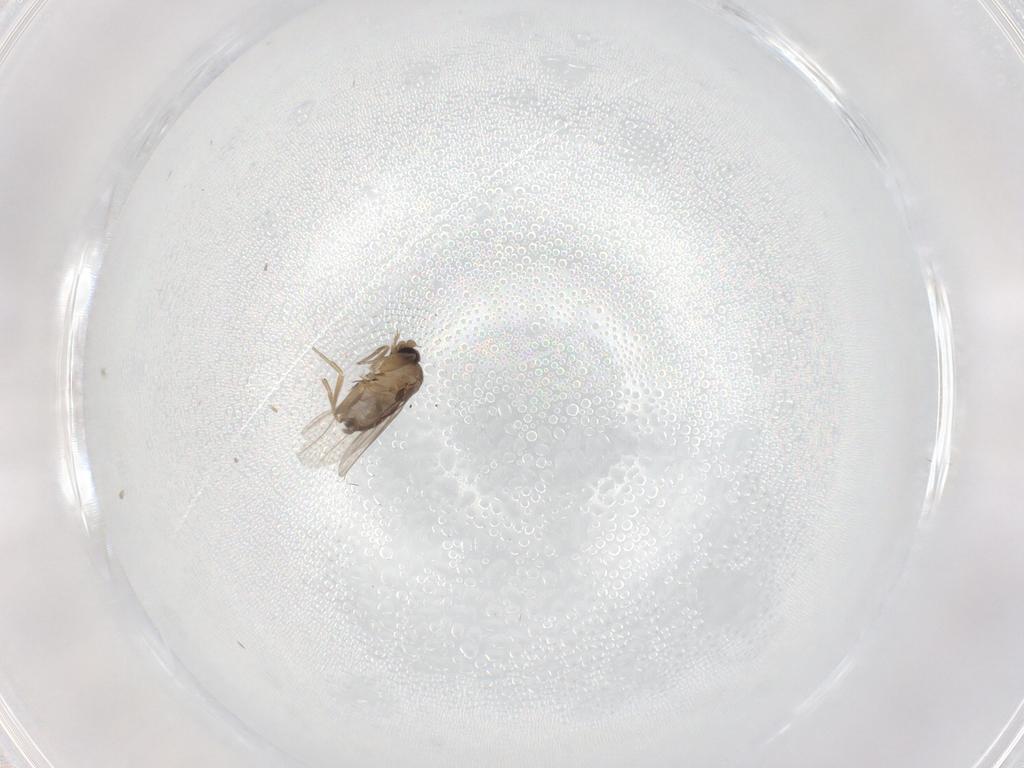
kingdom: Animalia
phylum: Arthropoda
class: Insecta
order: Diptera
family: Phoridae
